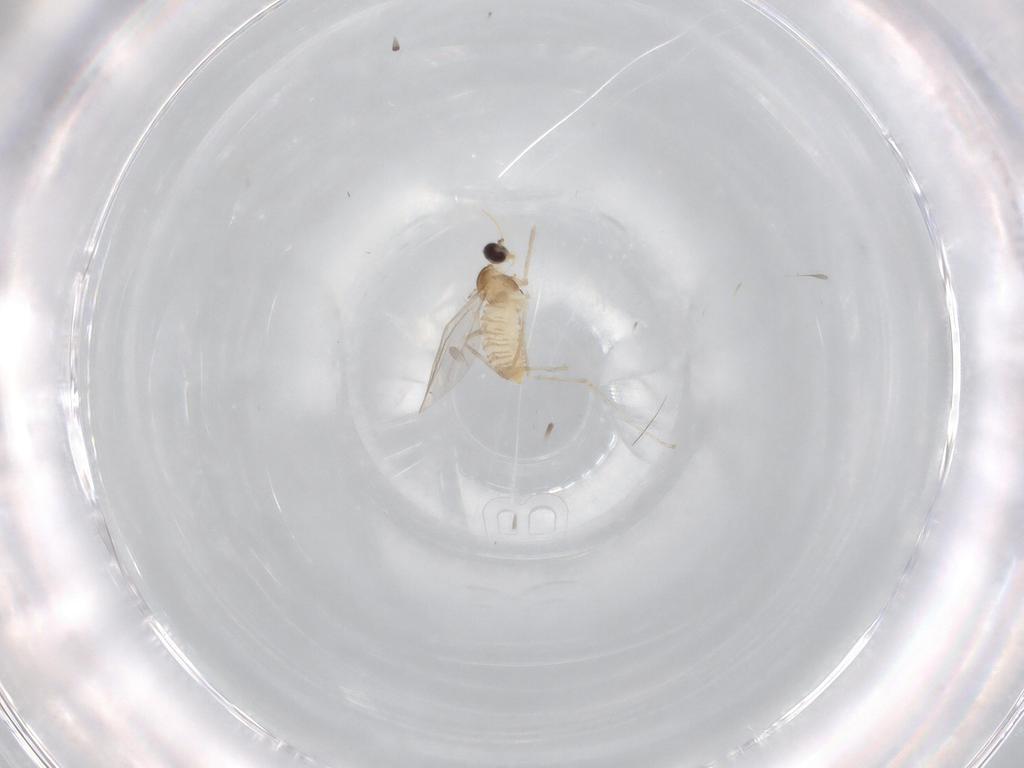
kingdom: Animalia
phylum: Arthropoda
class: Insecta
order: Diptera
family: Cecidomyiidae
